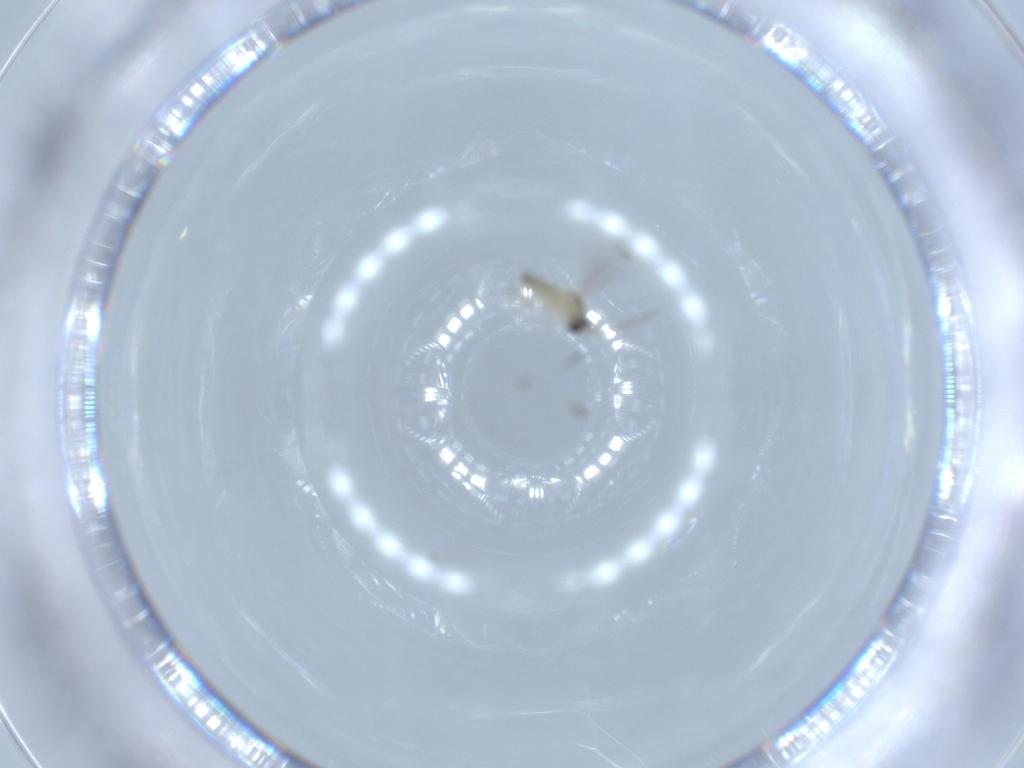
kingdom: Animalia
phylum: Arthropoda
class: Insecta
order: Diptera
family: Cecidomyiidae
